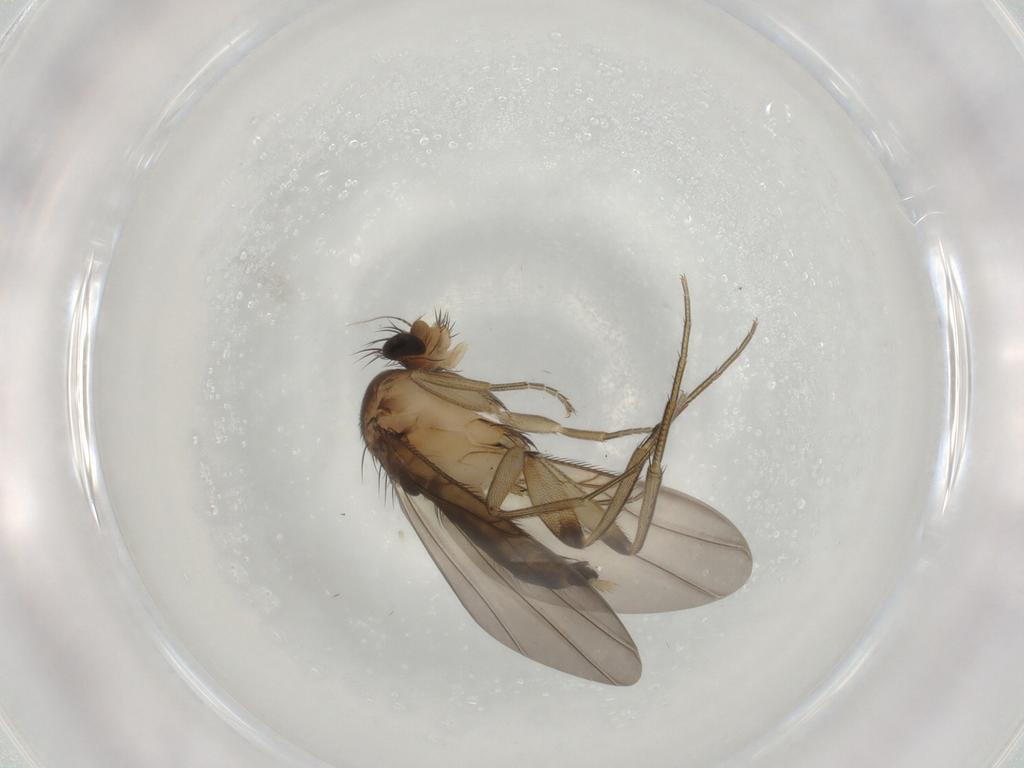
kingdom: Animalia
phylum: Arthropoda
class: Insecta
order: Diptera
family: Phoridae
